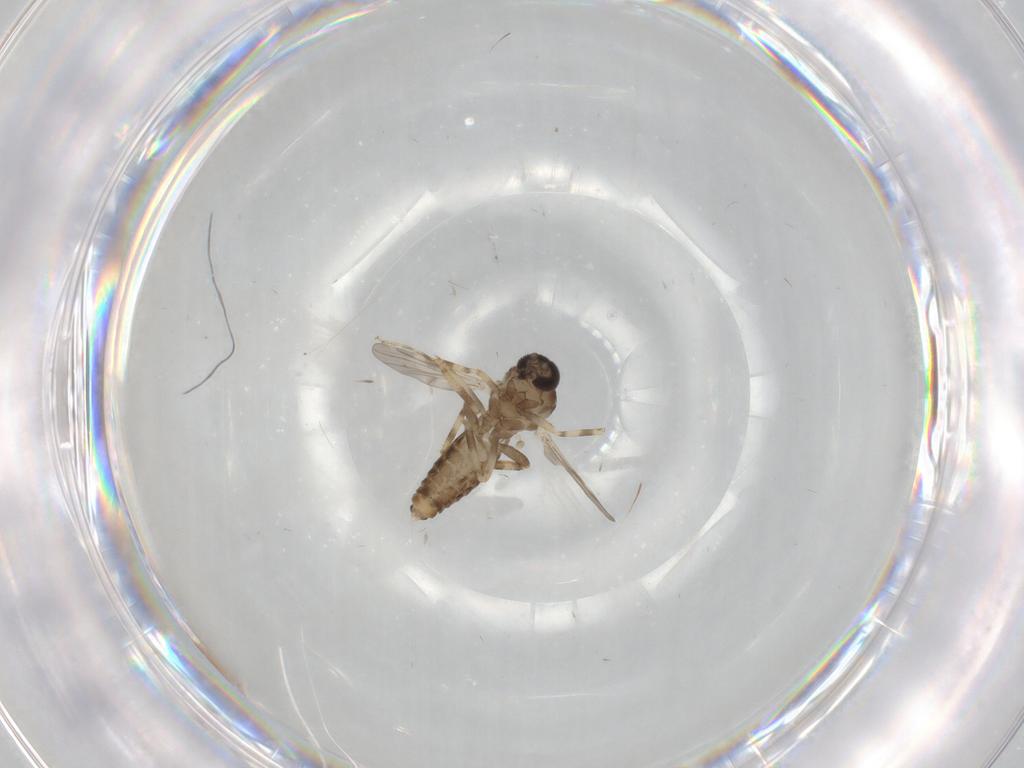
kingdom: Animalia
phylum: Arthropoda
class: Insecta
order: Diptera
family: Ceratopogonidae
